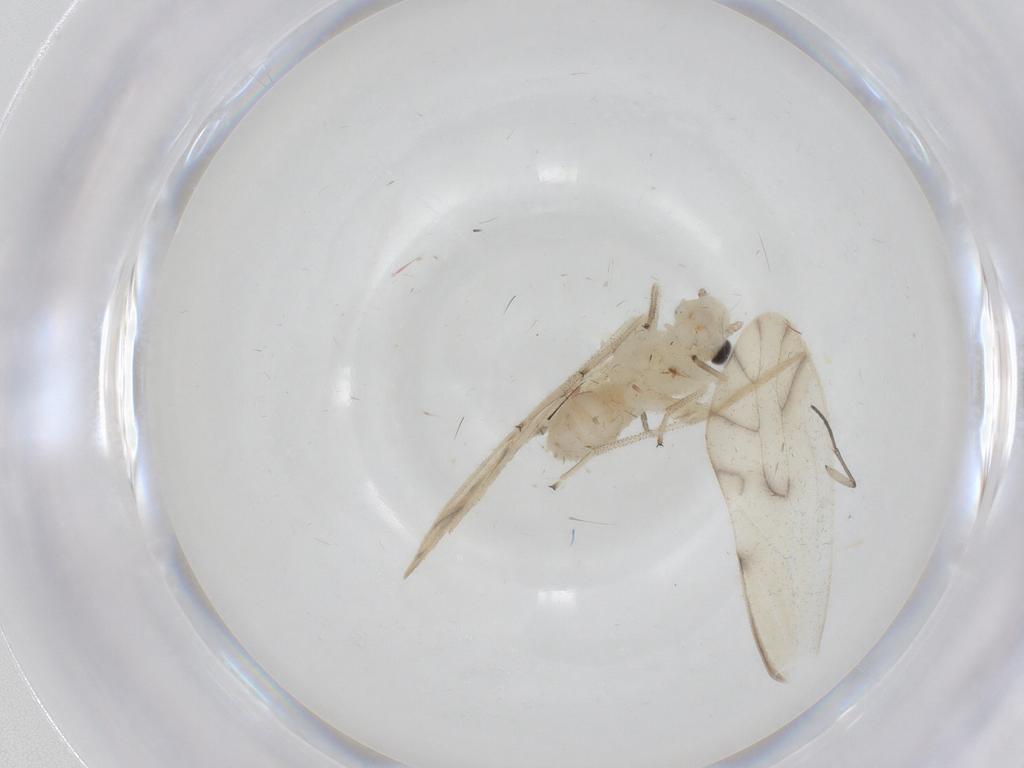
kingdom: Animalia
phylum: Arthropoda
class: Insecta
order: Psocodea
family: Caeciliusidae
